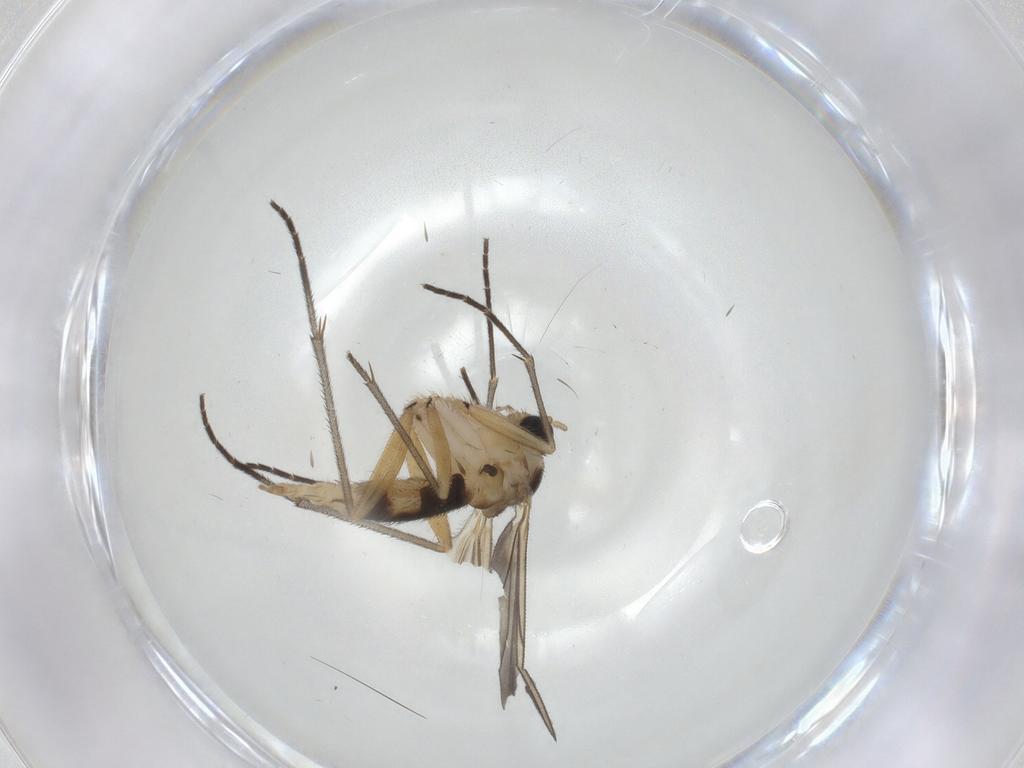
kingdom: Animalia
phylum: Arthropoda
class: Insecta
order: Diptera
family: Sciaridae
